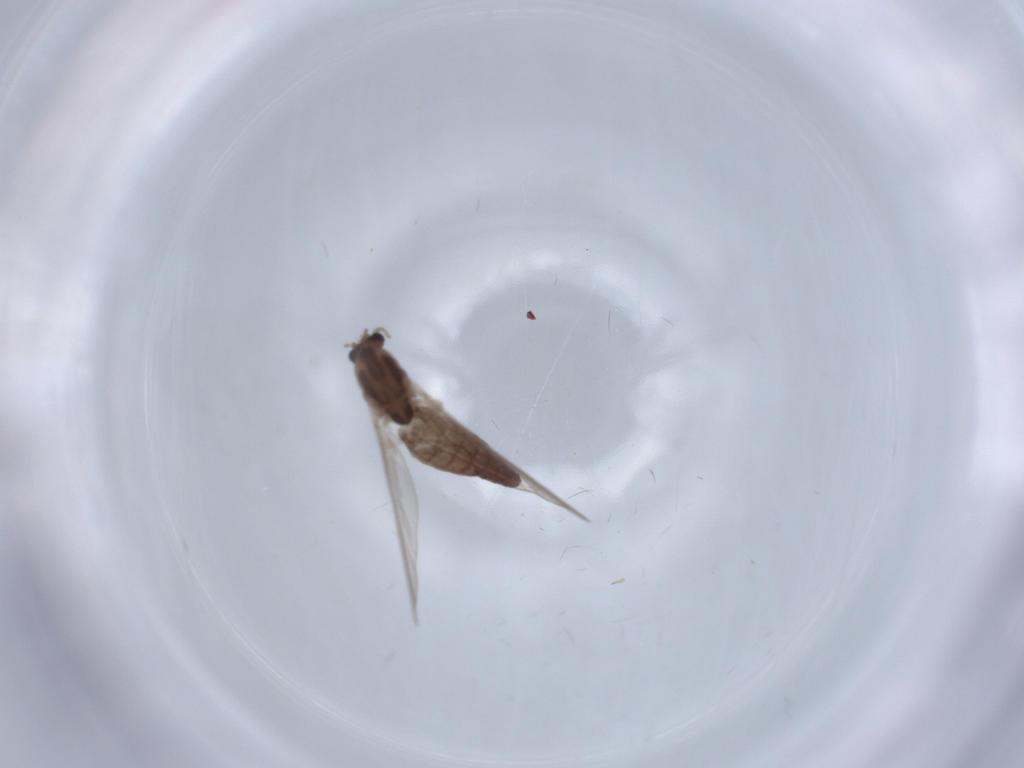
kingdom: Animalia
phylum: Arthropoda
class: Insecta
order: Diptera
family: Chironomidae
